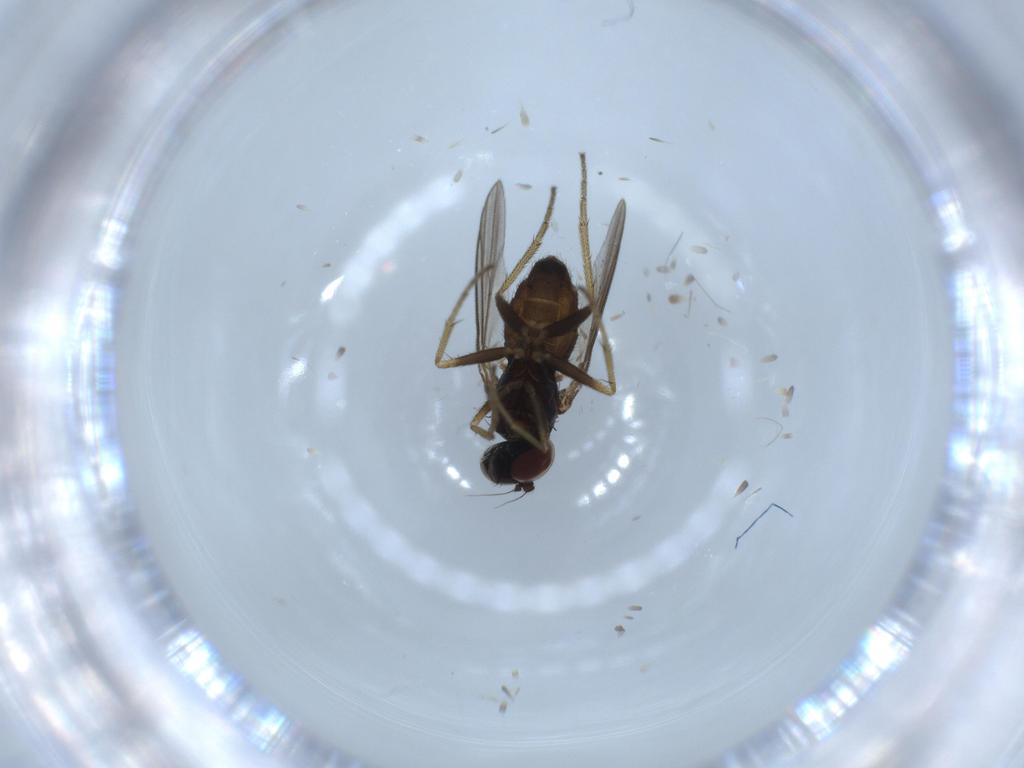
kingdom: Animalia
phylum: Arthropoda
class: Insecta
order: Diptera
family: Dolichopodidae
